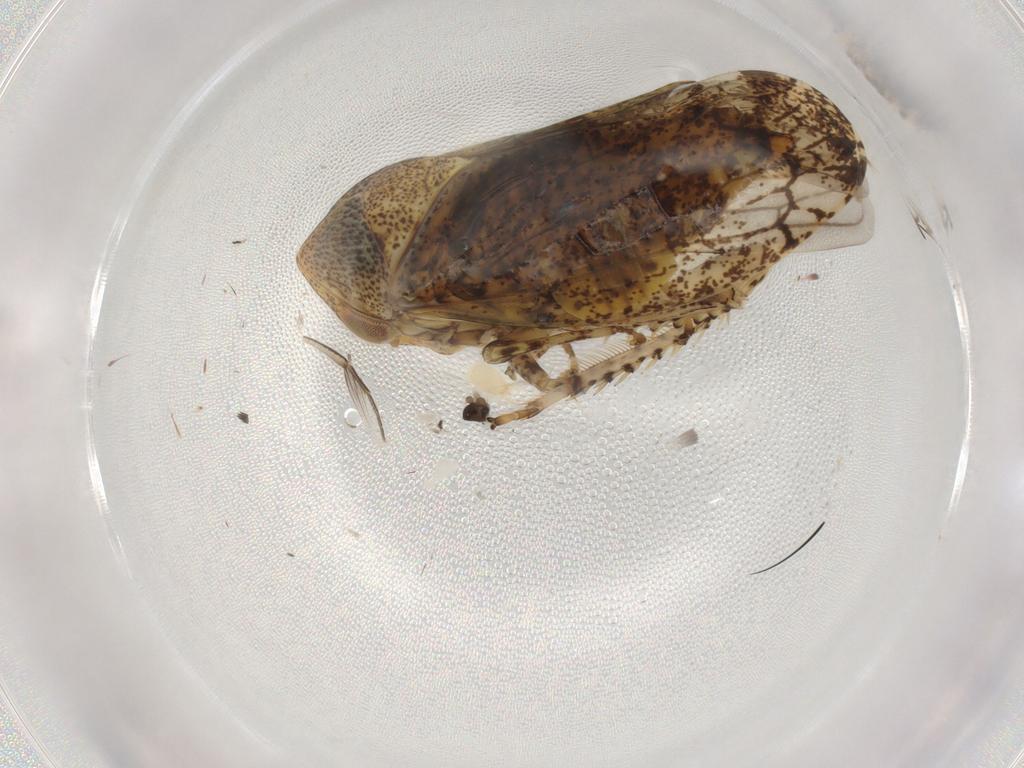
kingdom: Animalia
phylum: Arthropoda
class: Insecta
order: Hemiptera
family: Cicadellidae
